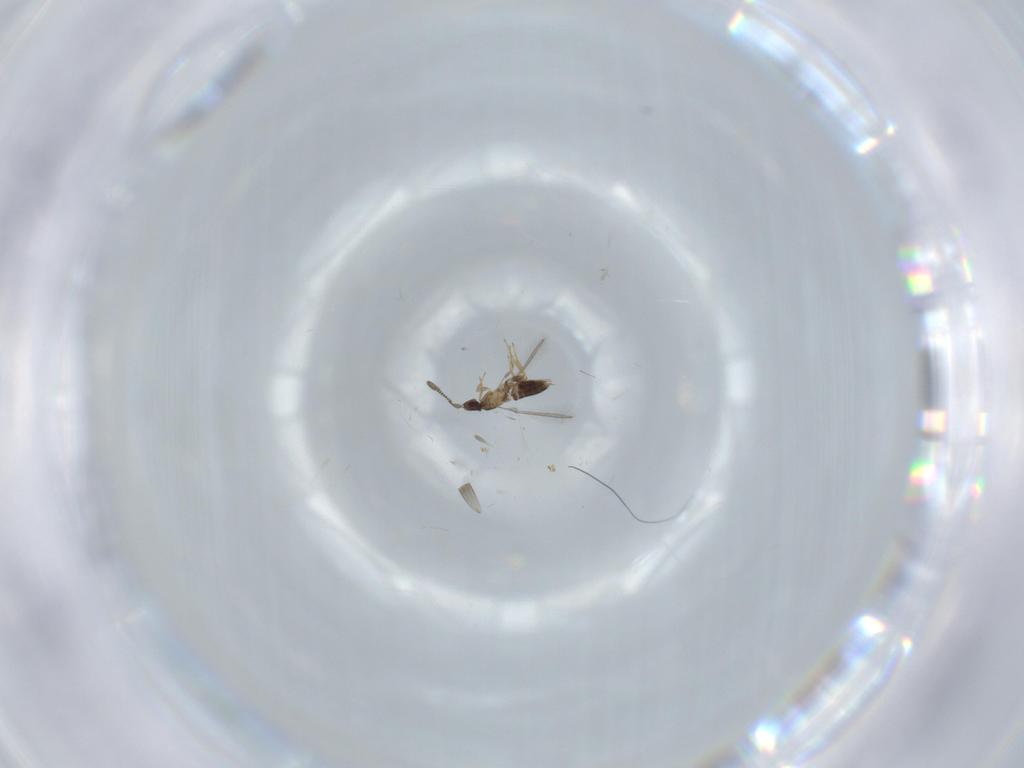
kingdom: Animalia
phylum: Arthropoda
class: Insecta
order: Hymenoptera
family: Mymaridae
